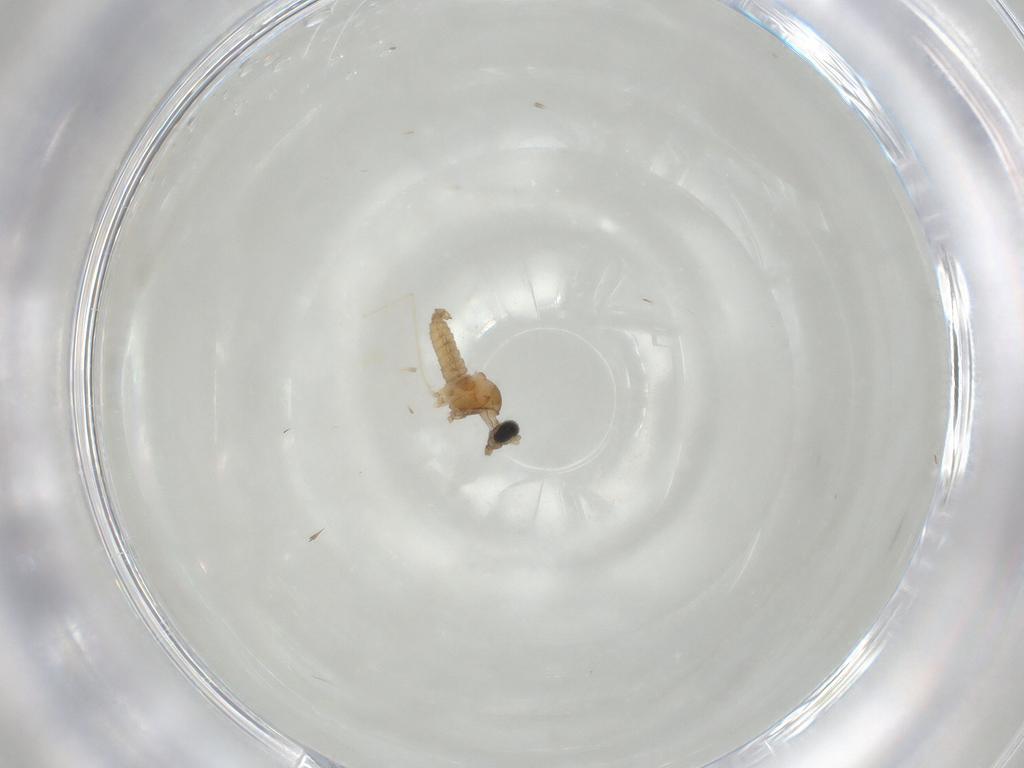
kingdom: Animalia
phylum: Arthropoda
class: Insecta
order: Diptera
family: Cecidomyiidae
